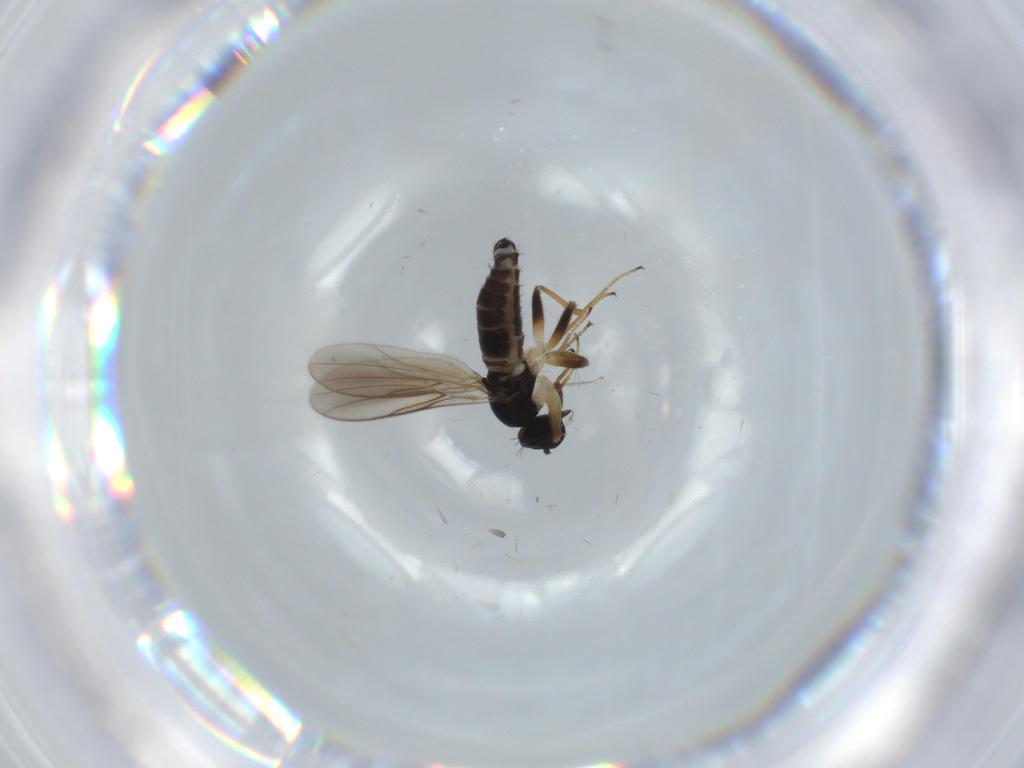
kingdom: Animalia
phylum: Arthropoda
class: Insecta
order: Diptera
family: Hybotidae
